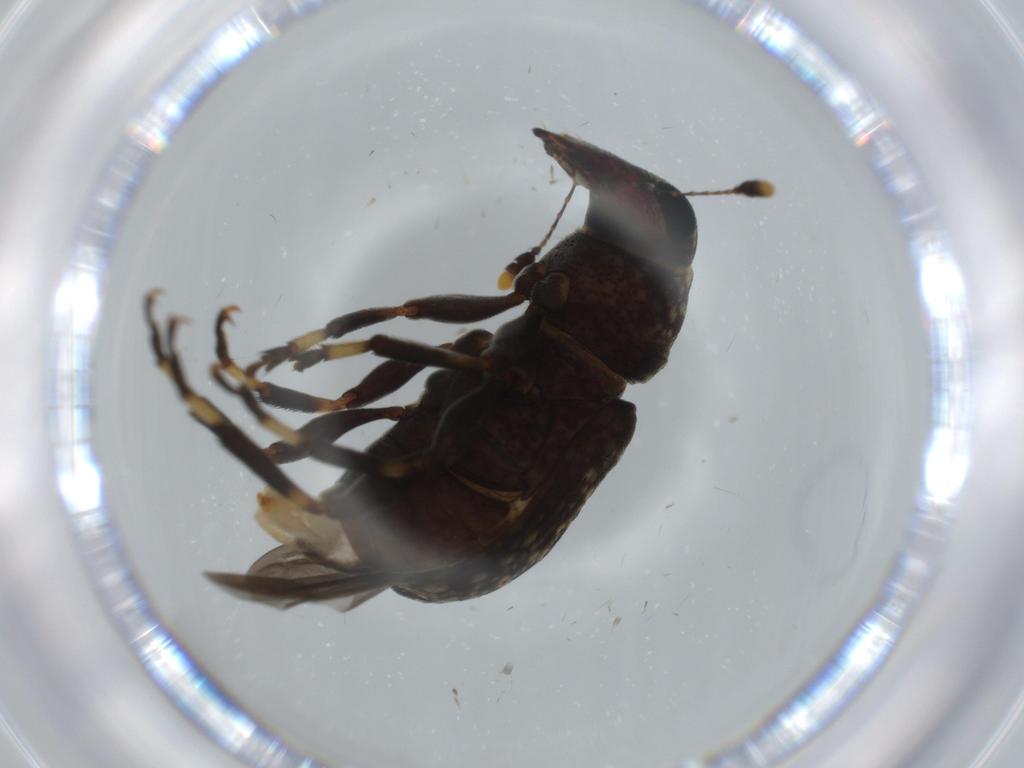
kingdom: Animalia
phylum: Arthropoda
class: Insecta
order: Coleoptera
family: Anthribidae
